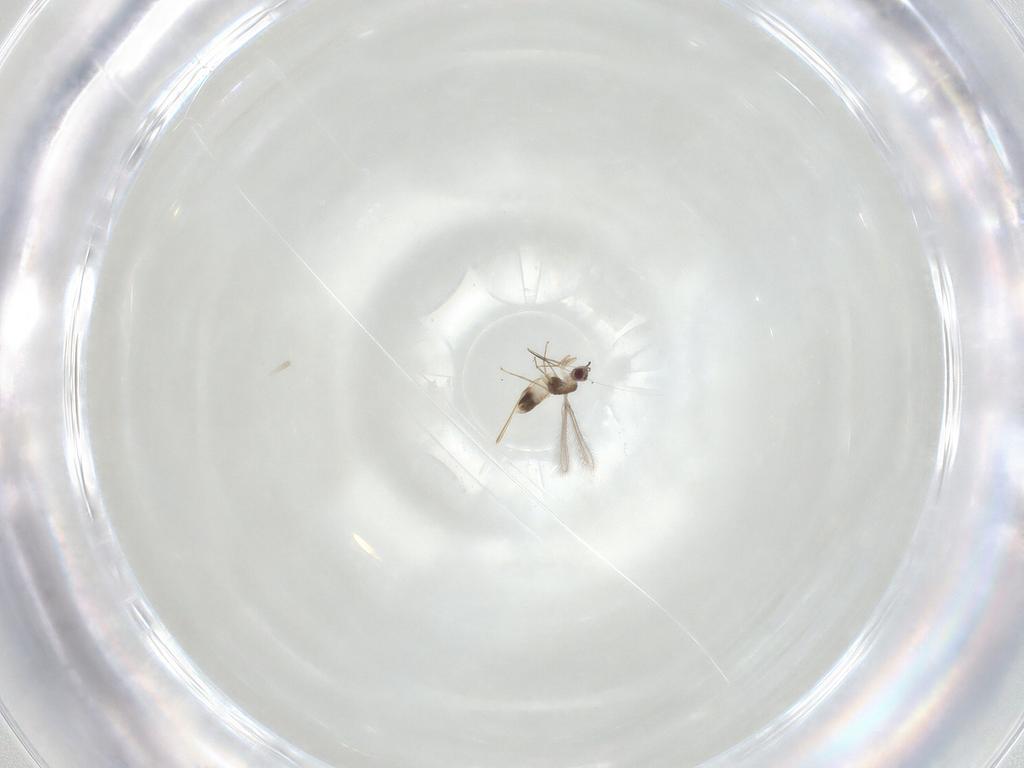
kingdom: Animalia
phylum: Arthropoda
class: Insecta
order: Hymenoptera
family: Mymaridae
